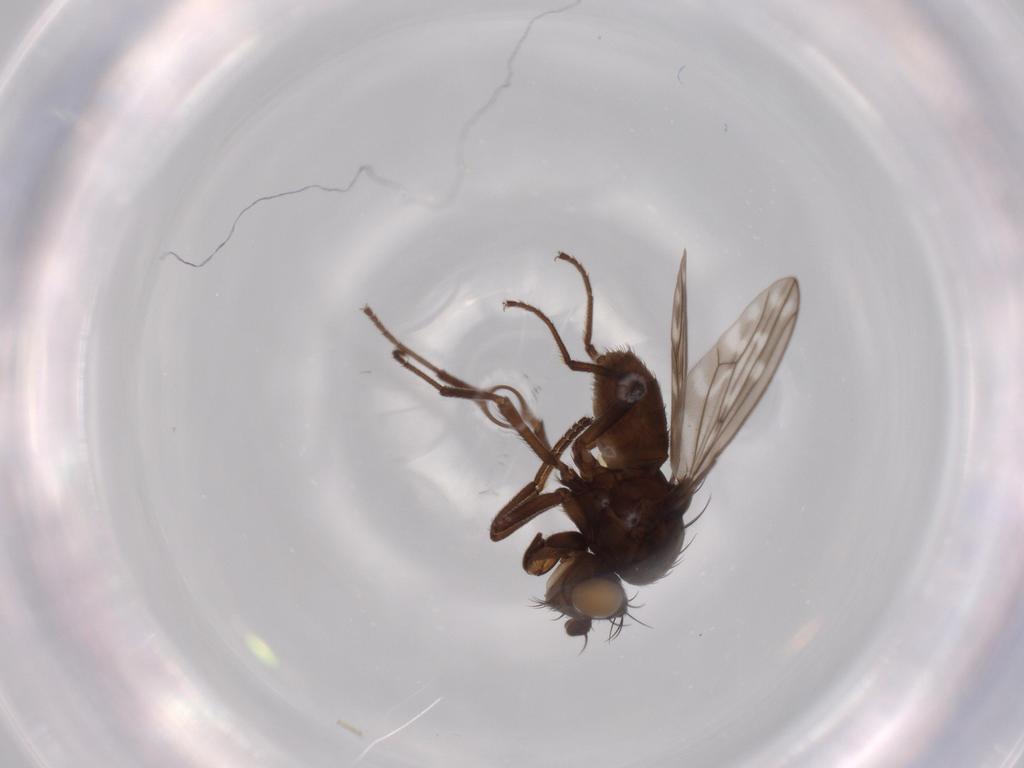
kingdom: Animalia
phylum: Arthropoda
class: Insecta
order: Diptera
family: Ephydridae
